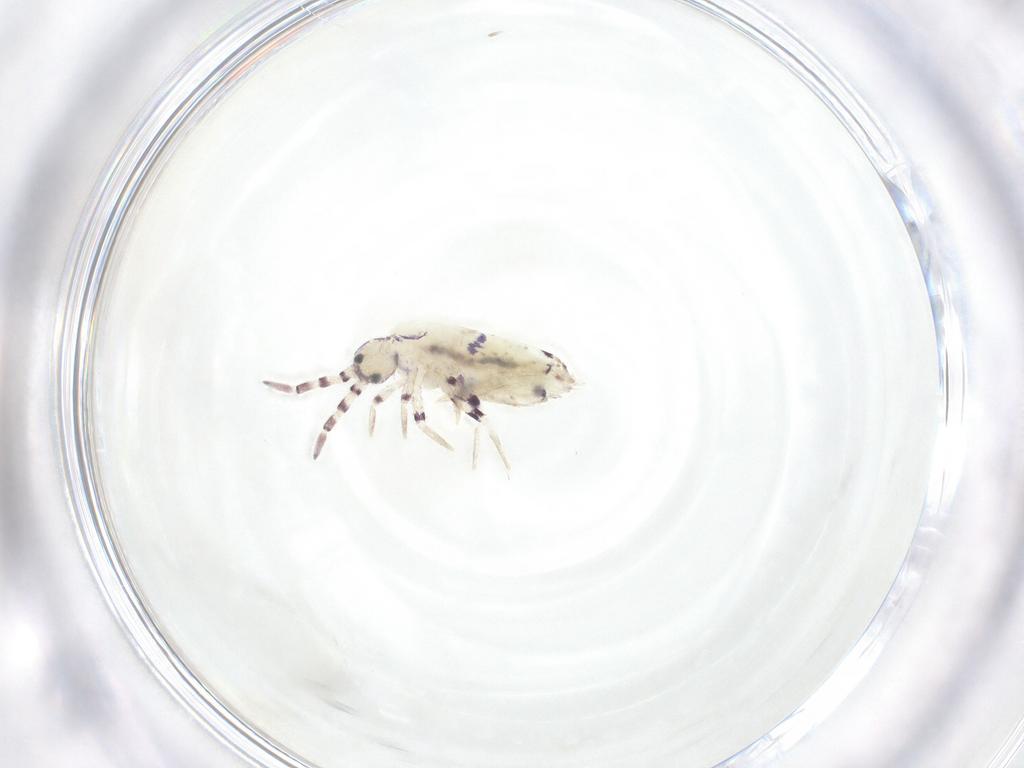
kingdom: Animalia
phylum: Arthropoda
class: Collembola
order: Entomobryomorpha
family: Entomobryidae
